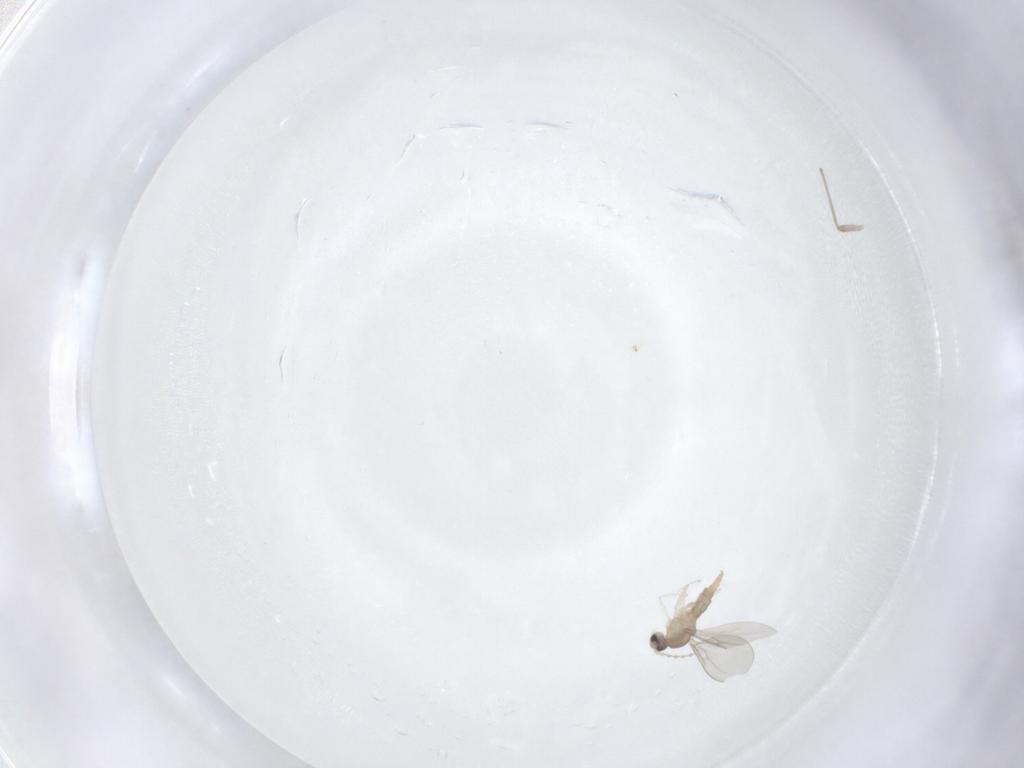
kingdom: Animalia
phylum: Arthropoda
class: Insecta
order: Diptera
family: Cecidomyiidae
